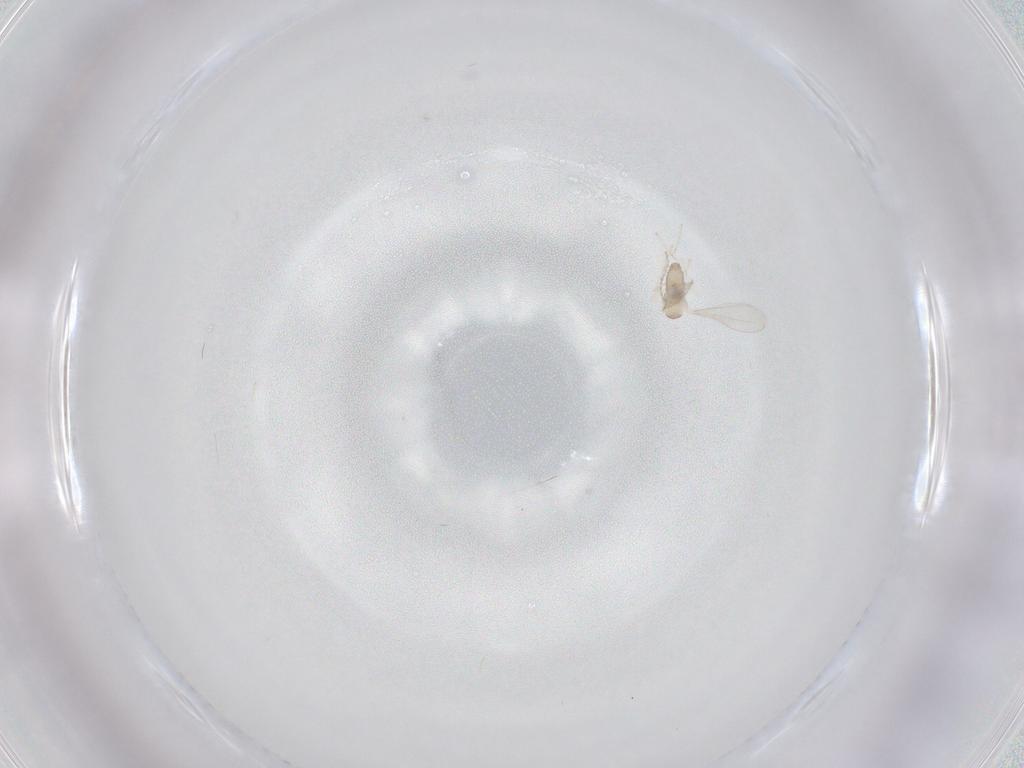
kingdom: Animalia
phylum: Arthropoda
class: Insecta
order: Diptera
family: Cecidomyiidae
